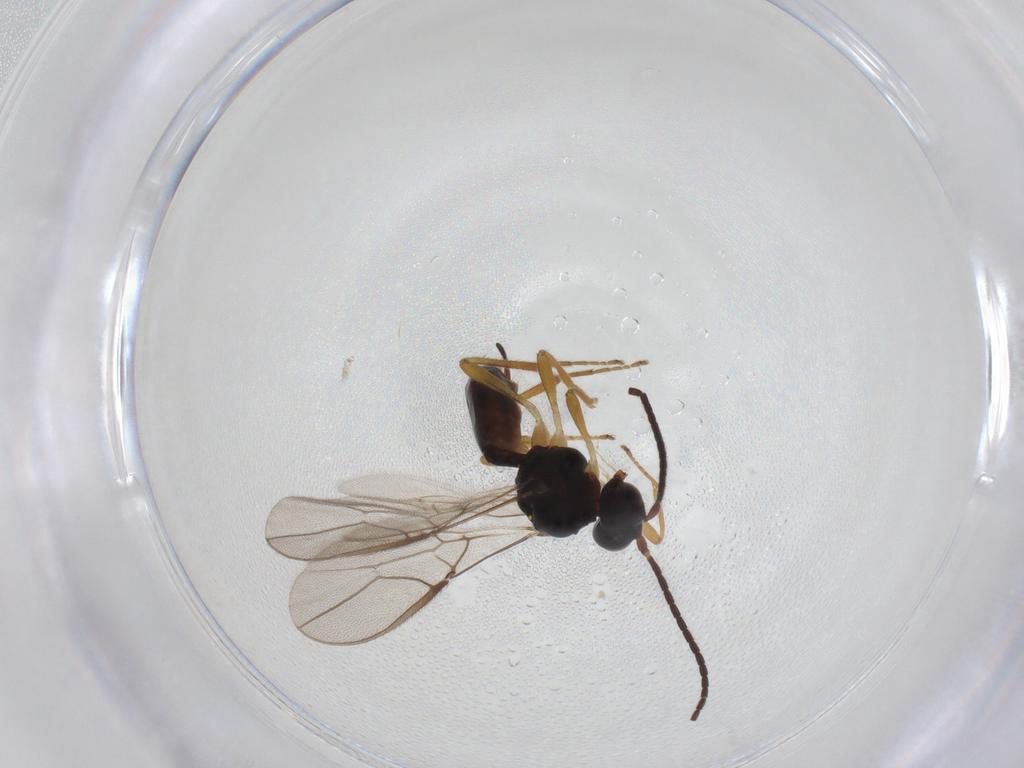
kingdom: Animalia
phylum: Arthropoda
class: Insecta
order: Hymenoptera
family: Braconidae
